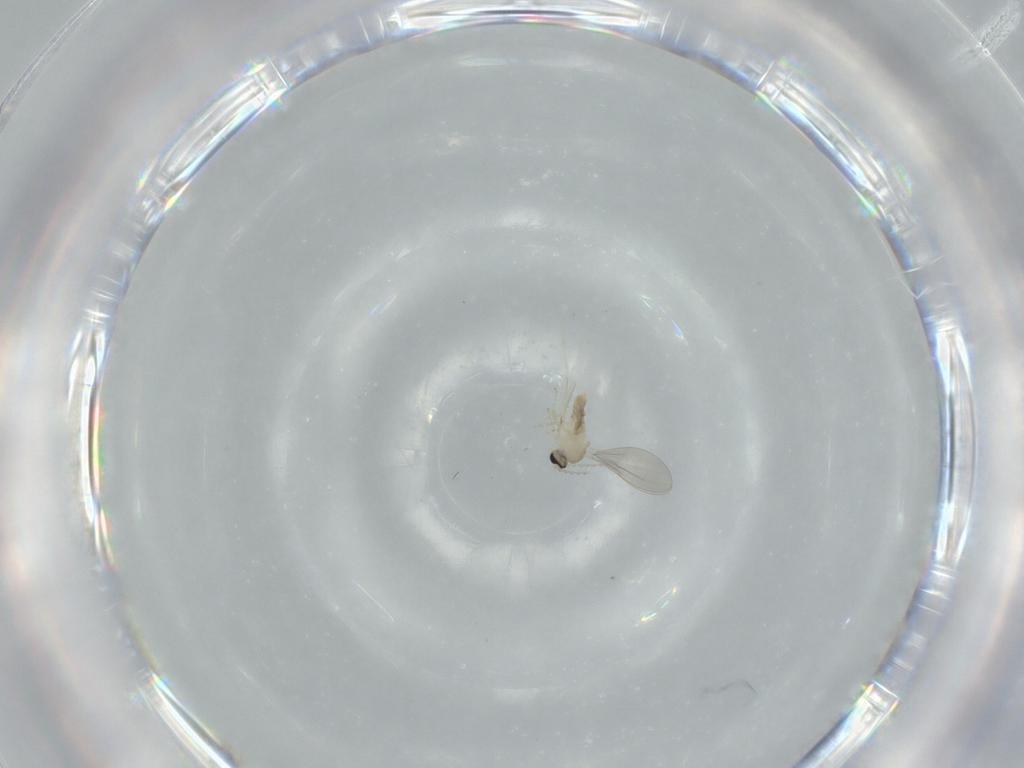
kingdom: Animalia
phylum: Arthropoda
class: Insecta
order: Diptera
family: Cecidomyiidae
